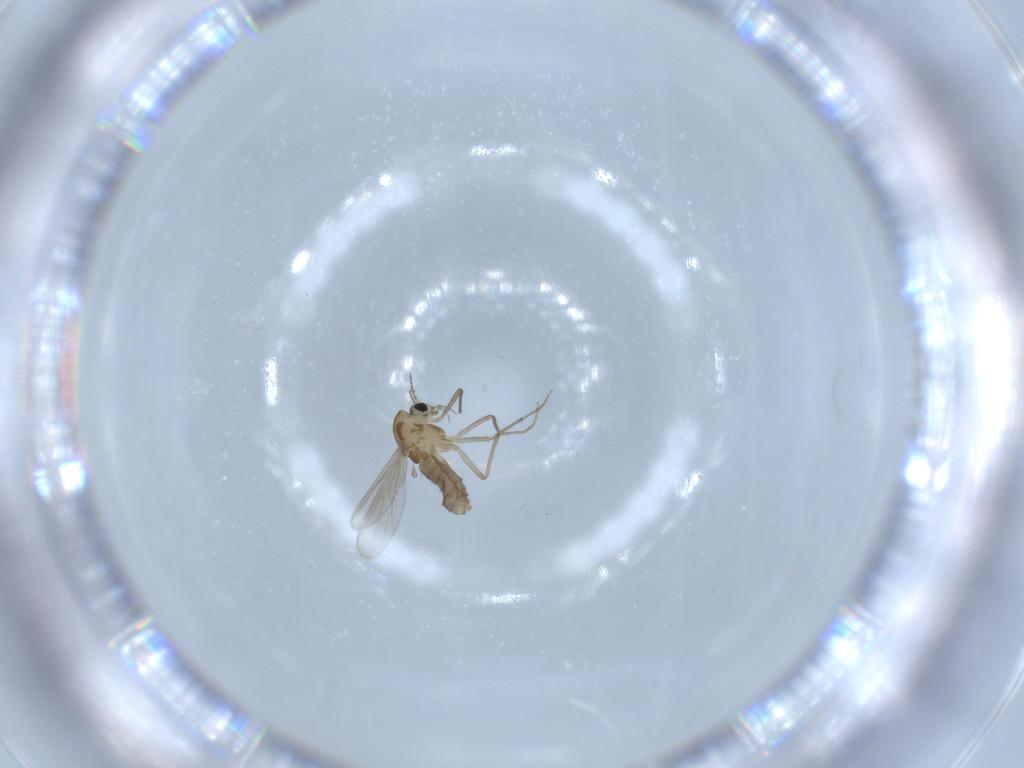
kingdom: Animalia
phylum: Arthropoda
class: Insecta
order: Diptera
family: Chironomidae
